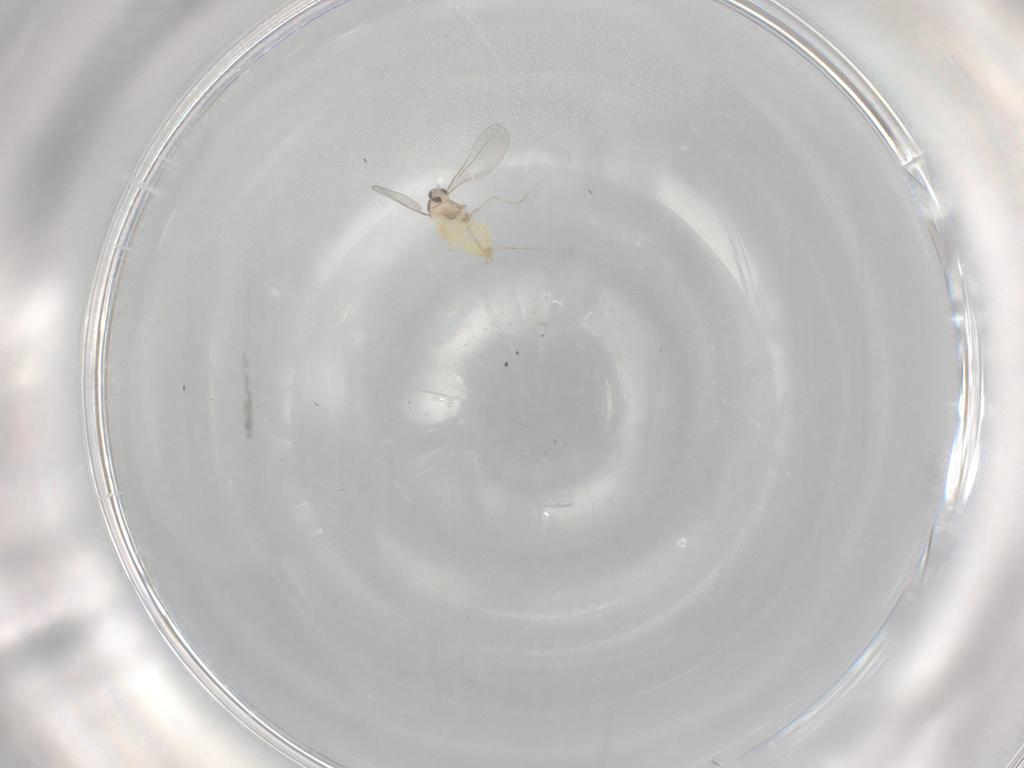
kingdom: Animalia
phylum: Arthropoda
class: Insecta
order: Diptera
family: Cecidomyiidae
